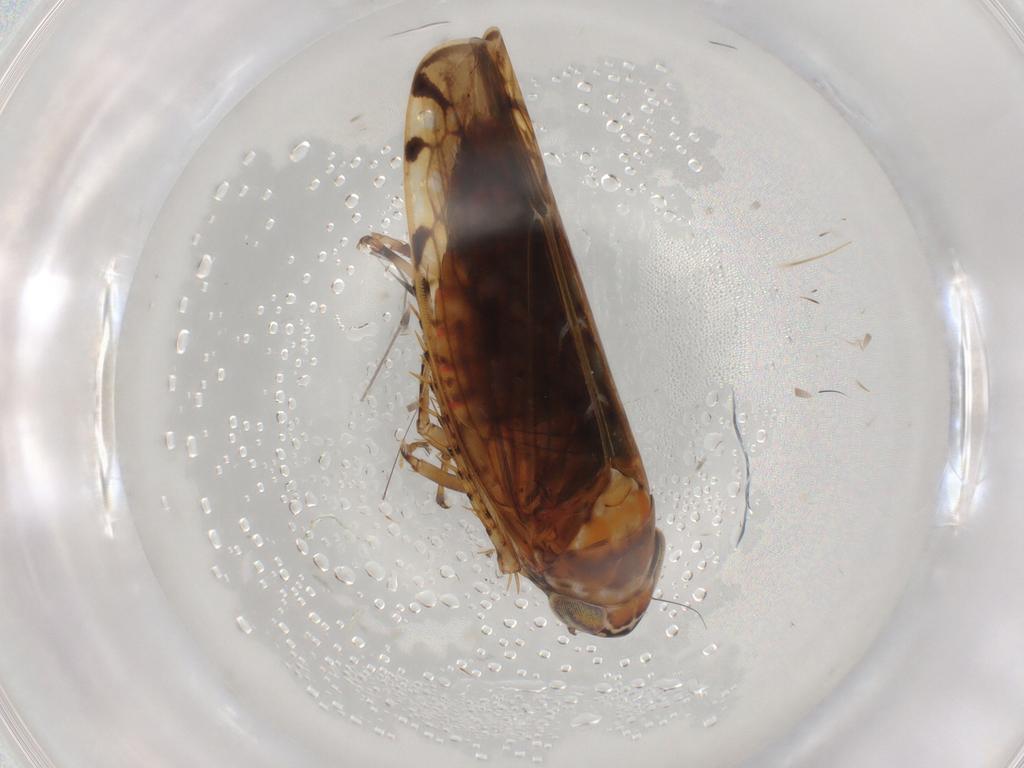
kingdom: Animalia
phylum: Arthropoda
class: Insecta
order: Hemiptera
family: Cicadellidae
